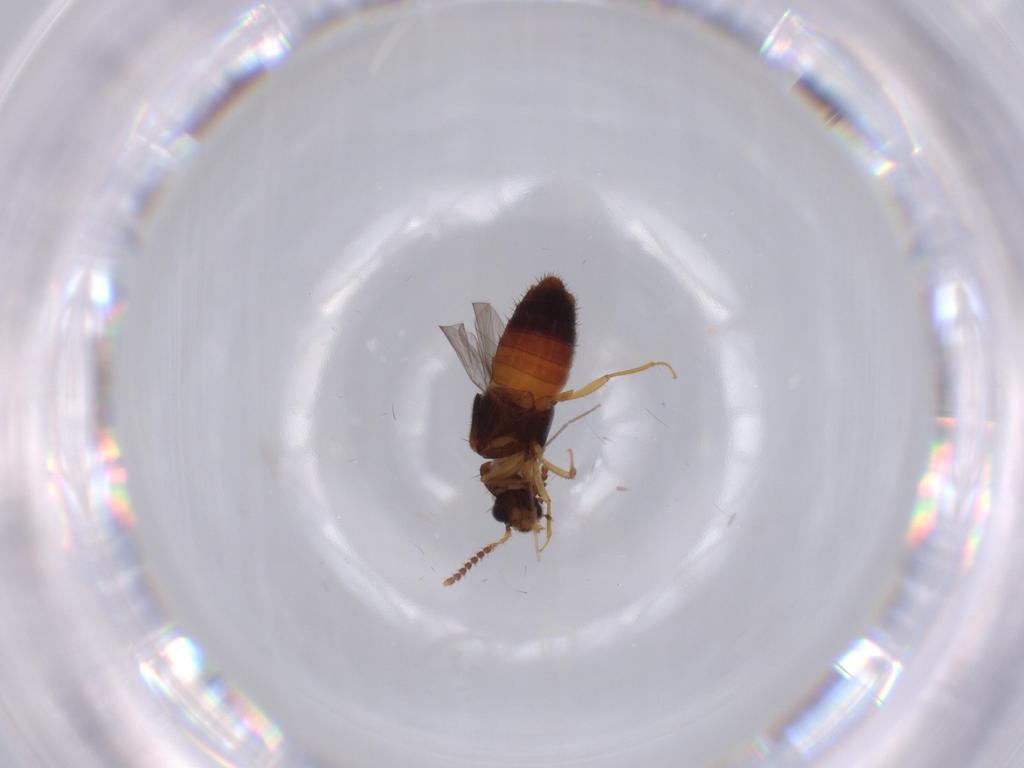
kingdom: Animalia
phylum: Arthropoda
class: Insecta
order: Coleoptera
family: Staphylinidae
